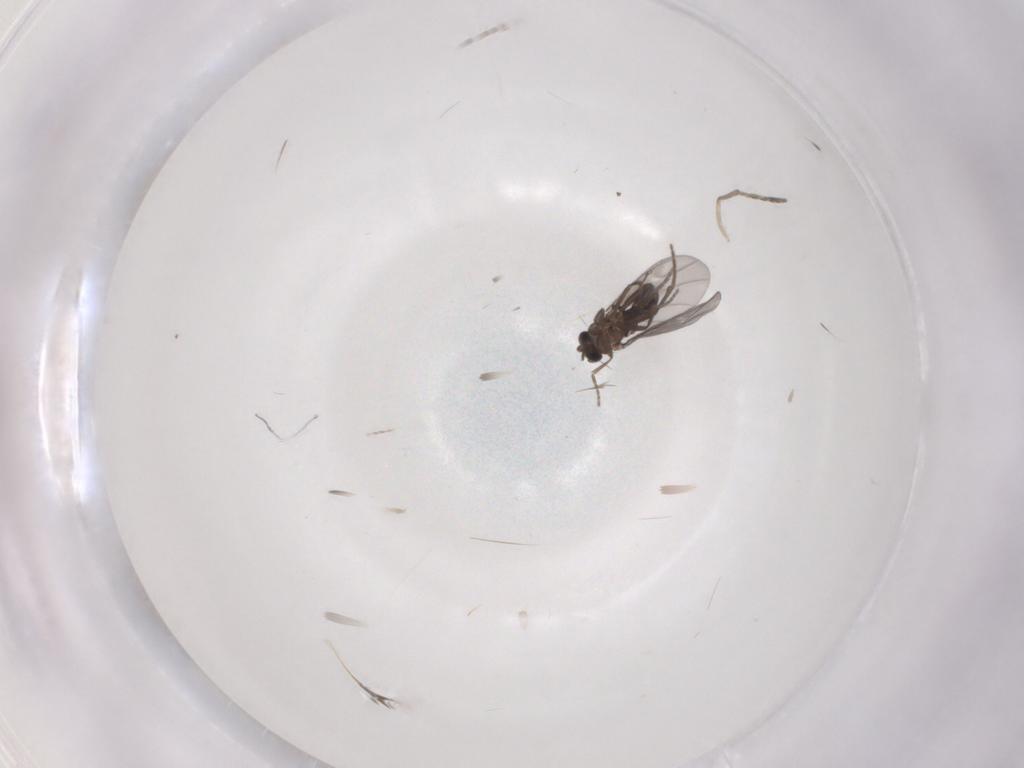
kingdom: Animalia
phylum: Arthropoda
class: Insecta
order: Diptera
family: Cecidomyiidae
